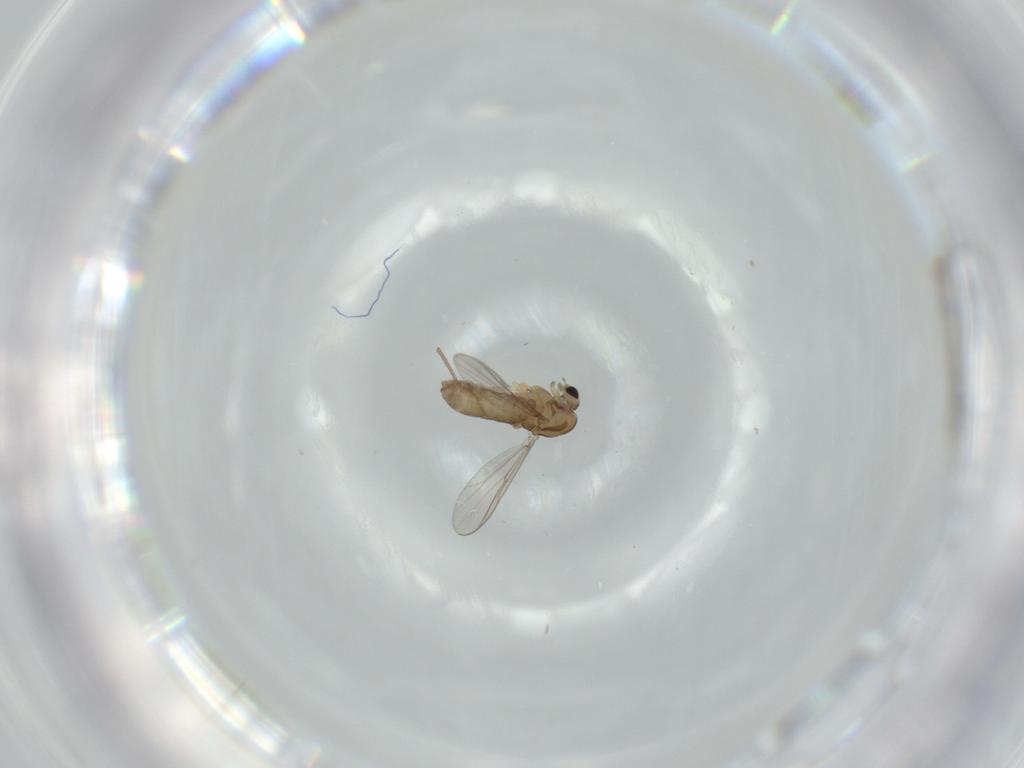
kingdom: Animalia
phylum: Arthropoda
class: Insecta
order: Diptera
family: Chironomidae
